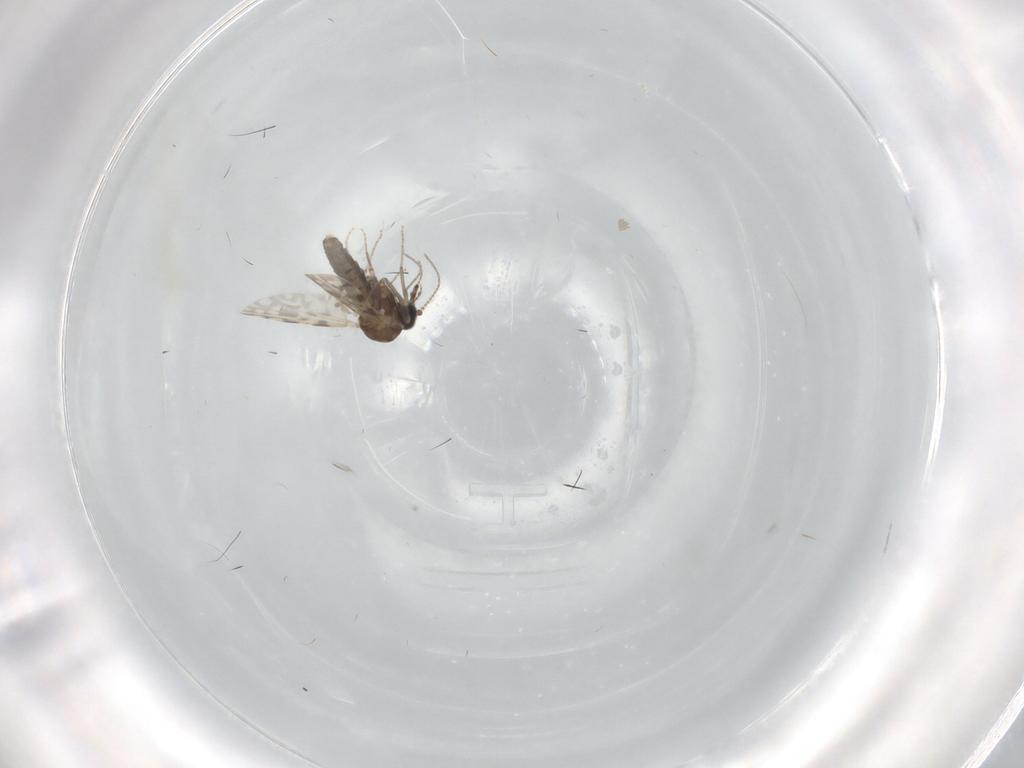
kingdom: Animalia
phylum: Arthropoda
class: Insecta
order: Diptera
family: Ceratopogonidae
